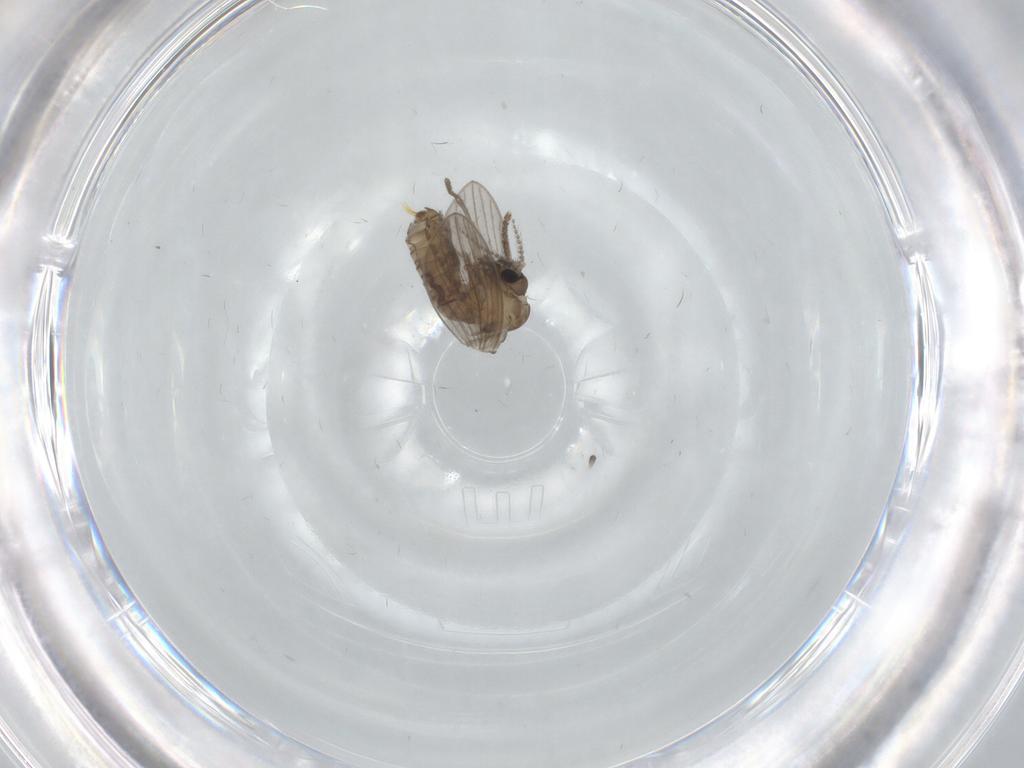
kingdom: Animalia
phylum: Arthropoda
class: Insecta
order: Diptera
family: Psychodidae
